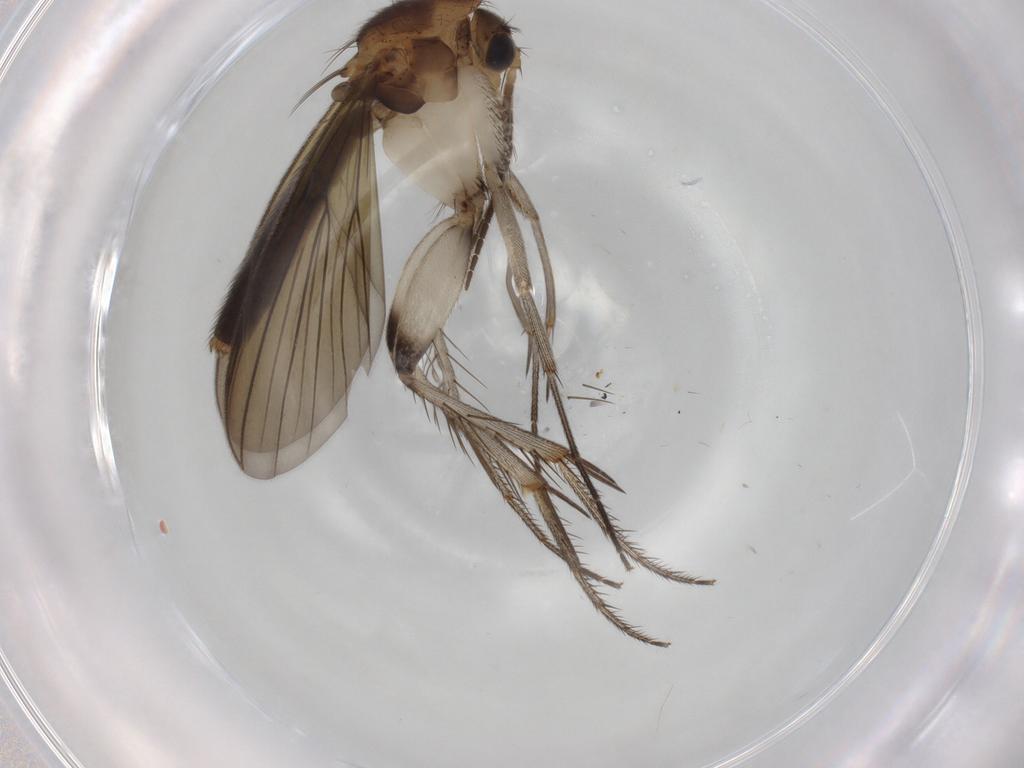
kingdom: Animalia
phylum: Arthropoda
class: Insecta
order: Diptera
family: Mycetophilidae
